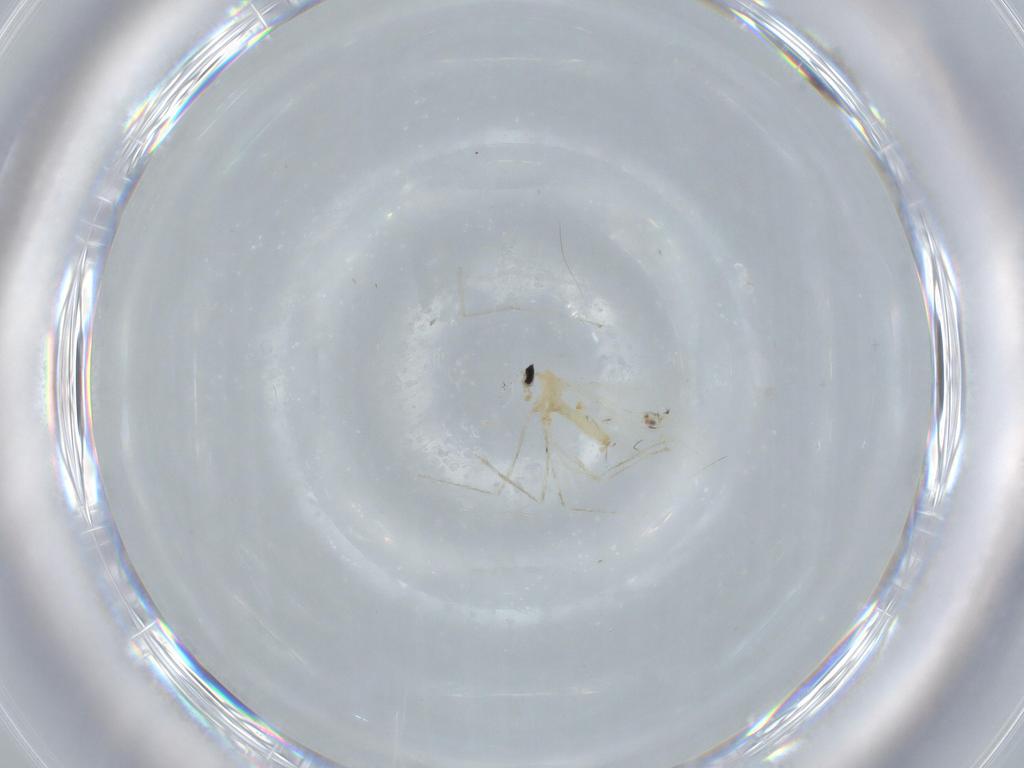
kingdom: Animalia
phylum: Arthropoda
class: Insecta
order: Diptera
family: Cecidomyiidae
